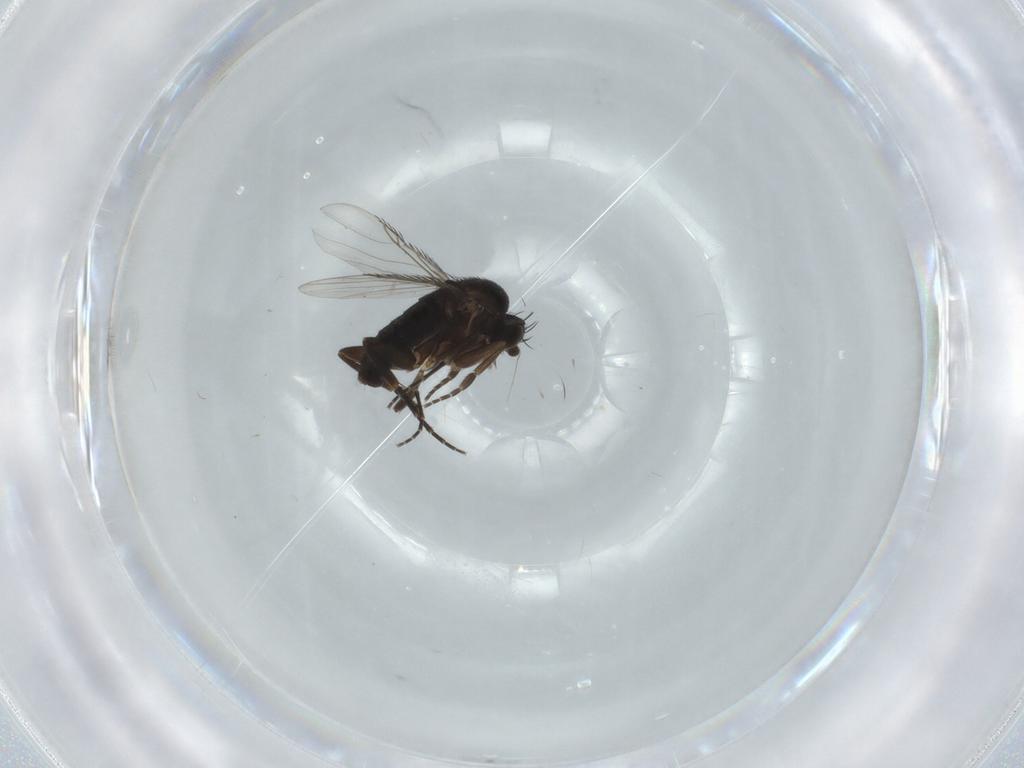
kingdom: Animalia
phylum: Arthropoda
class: Insecta
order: Diptera
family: Phoridae
